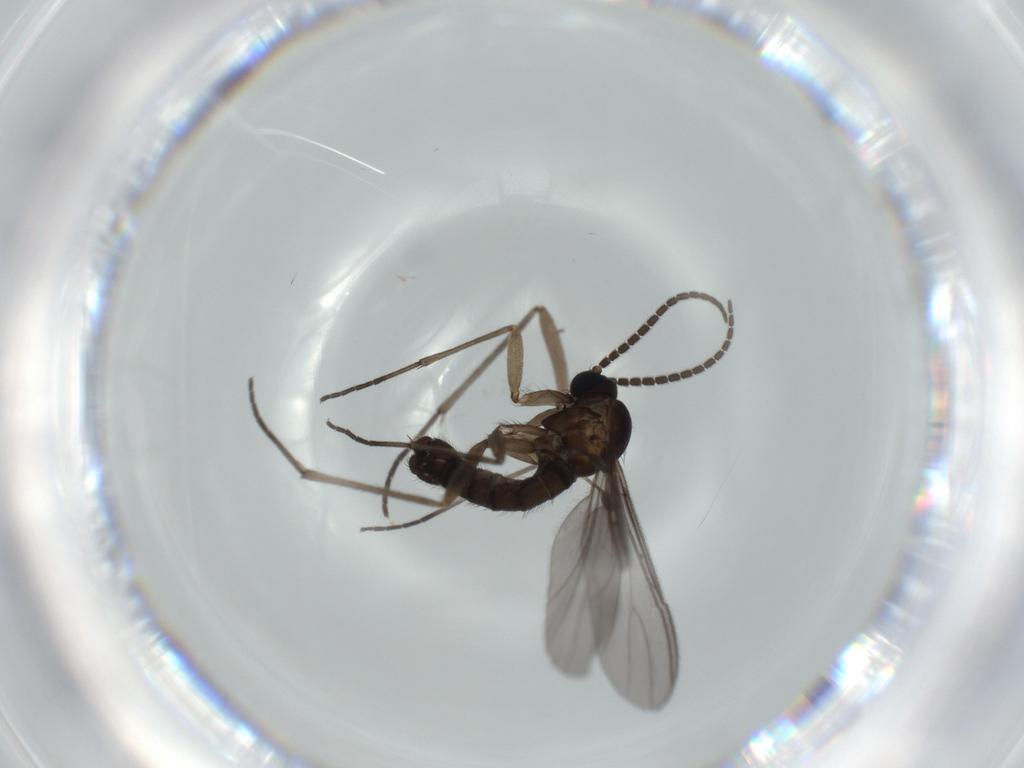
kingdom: Animalia
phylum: Arthropoda
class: Insecta
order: Diptera
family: Sciaridae
